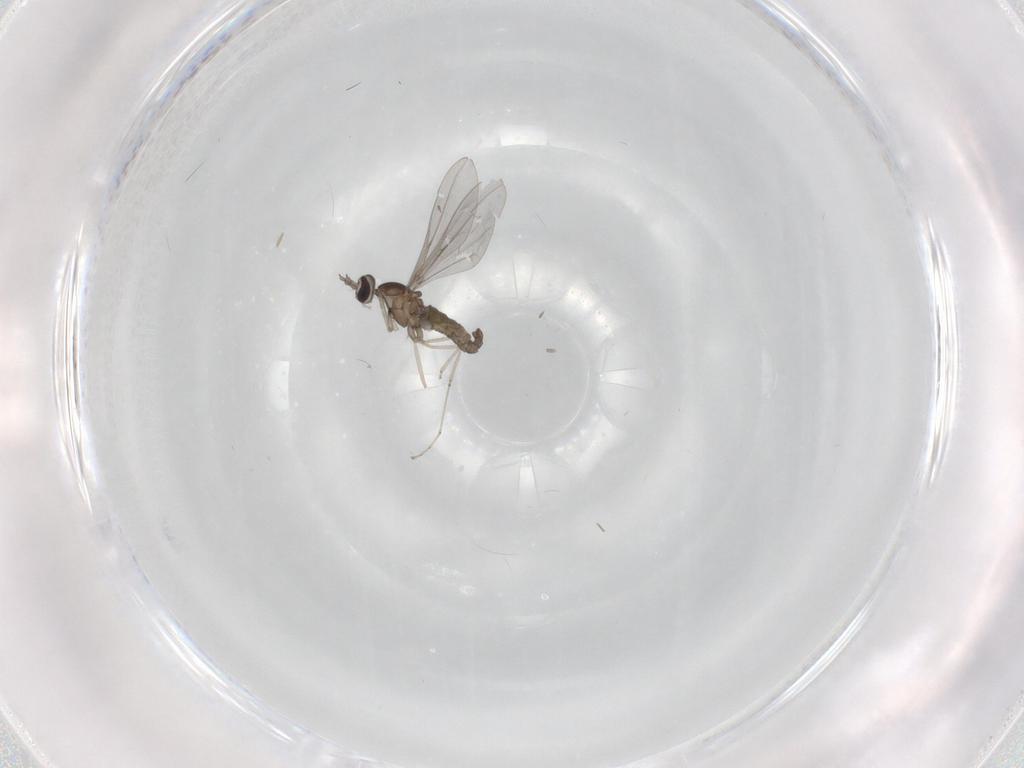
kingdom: Animalia
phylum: Arthropoda
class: Insecta
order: Diptera
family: Cecidomyiidae
